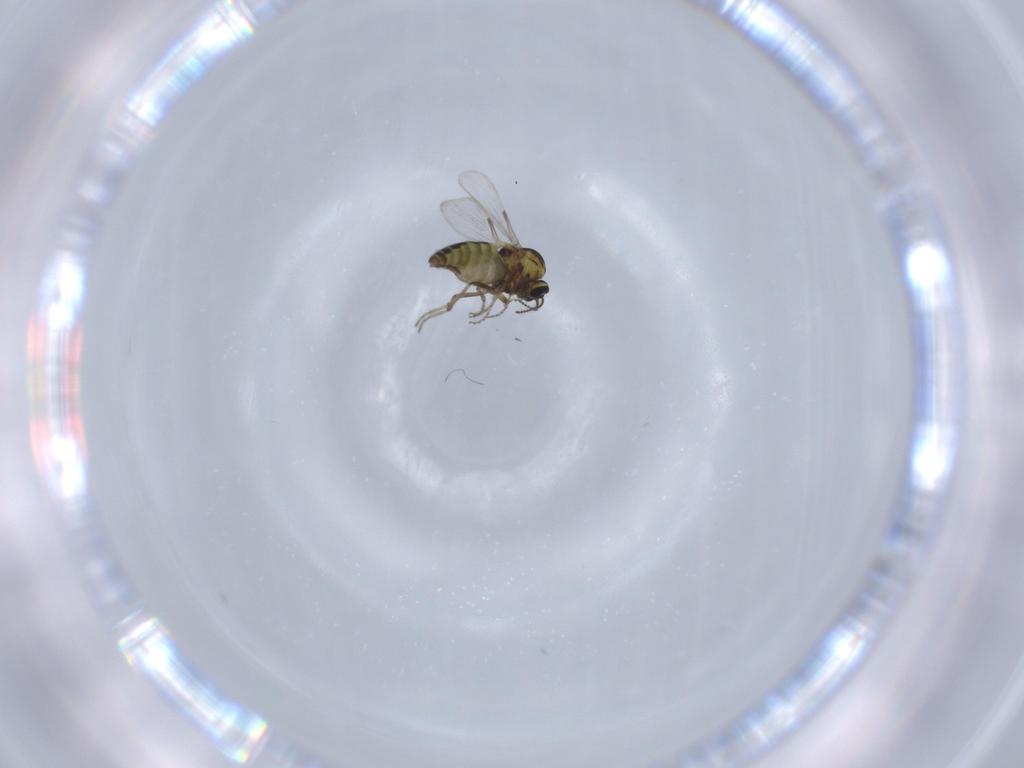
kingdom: Animalia
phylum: Arthropoda
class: Insecta
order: Diptera
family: Ceratopogonidae
